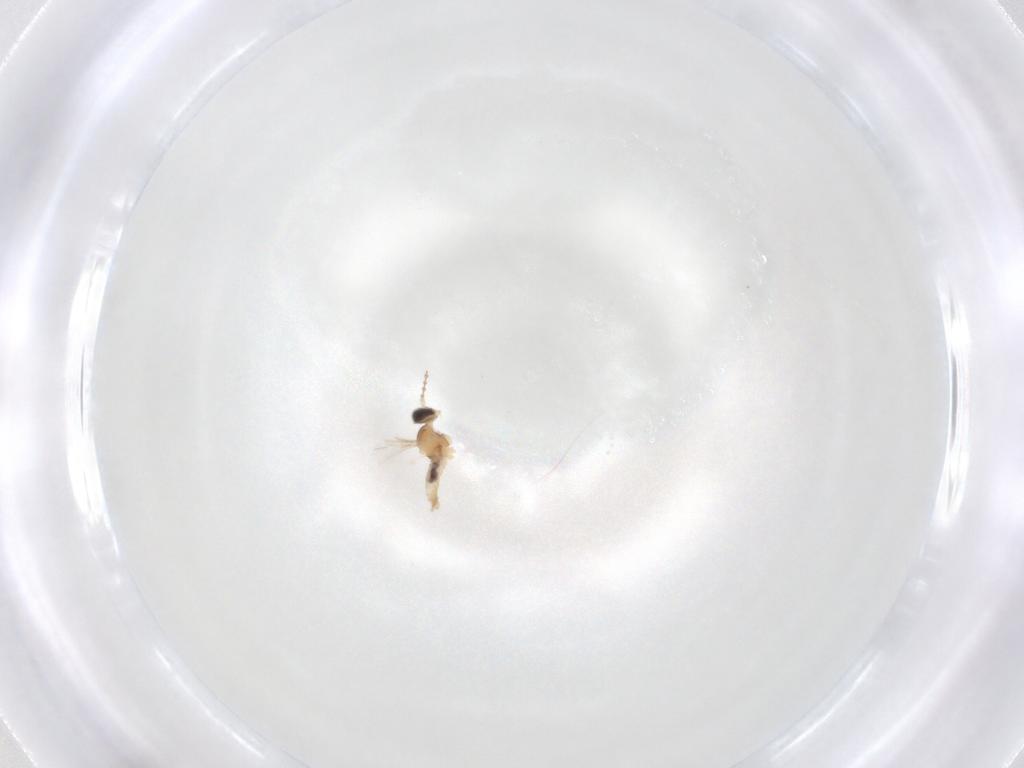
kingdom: Animalia
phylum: Arthropoda
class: Insecta
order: Diptera
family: Cecidomyiidae
